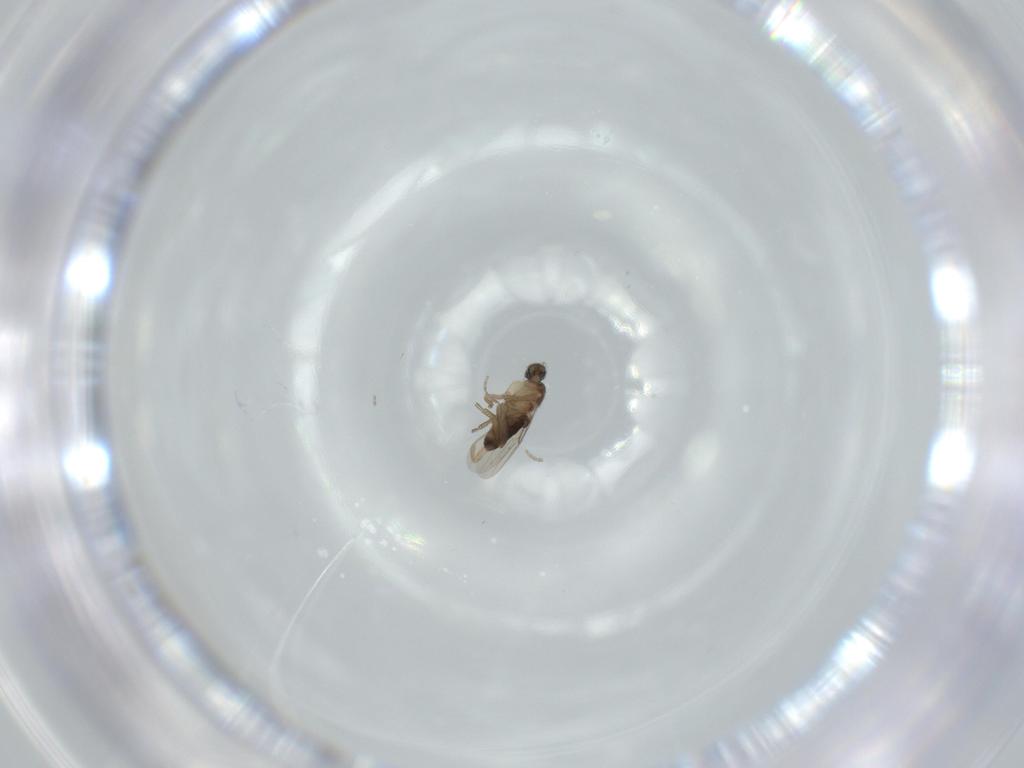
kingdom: Animalia
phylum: Arthropoda
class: Insecta
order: Diptera
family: Phoridae
